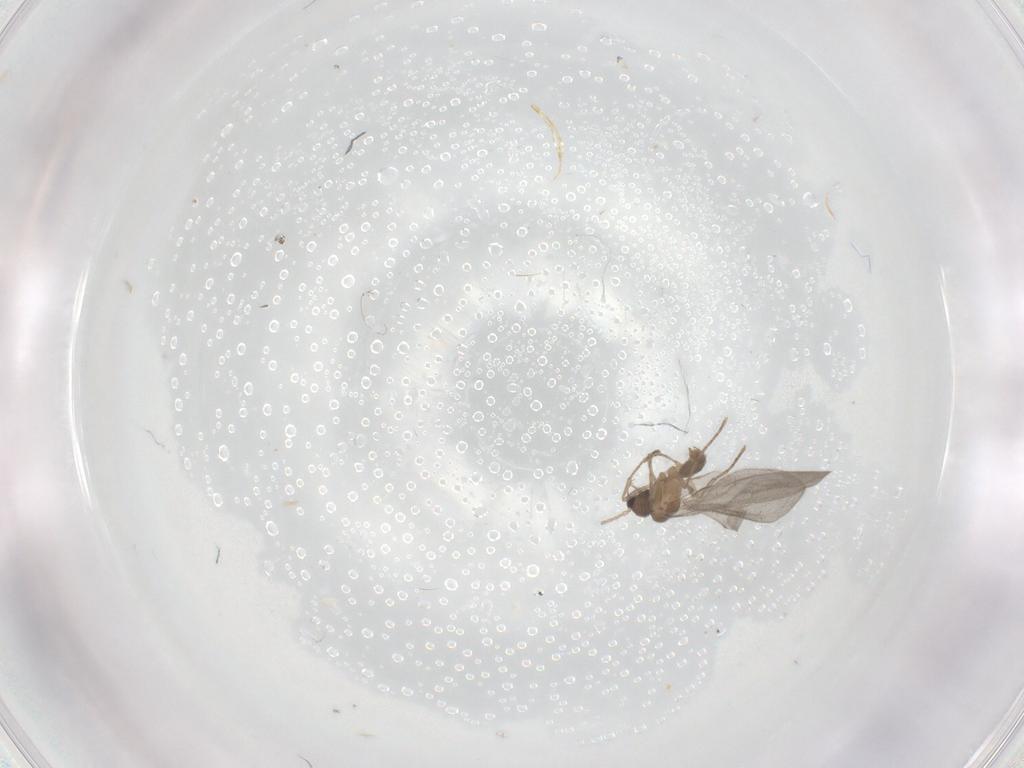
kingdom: Animalia
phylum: Arthropoda
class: Insecta
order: Hymenoptera
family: Formicidae
